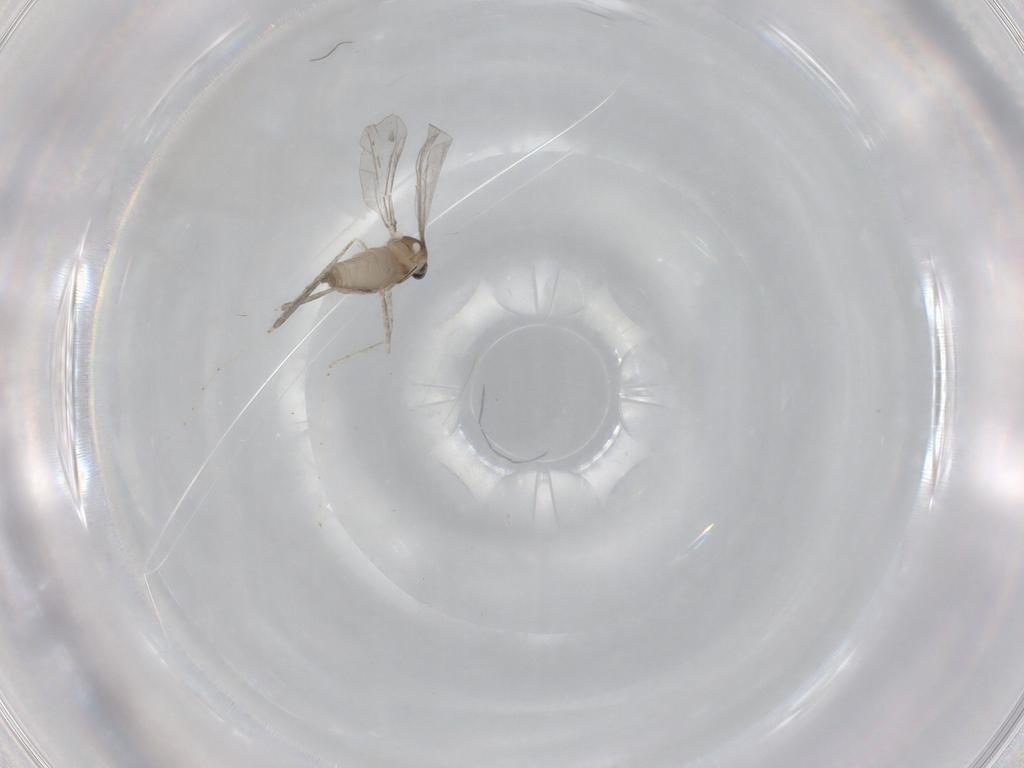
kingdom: Animalia
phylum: Arthropoda
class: Insecta
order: Diptera
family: Cecidomyiidae
